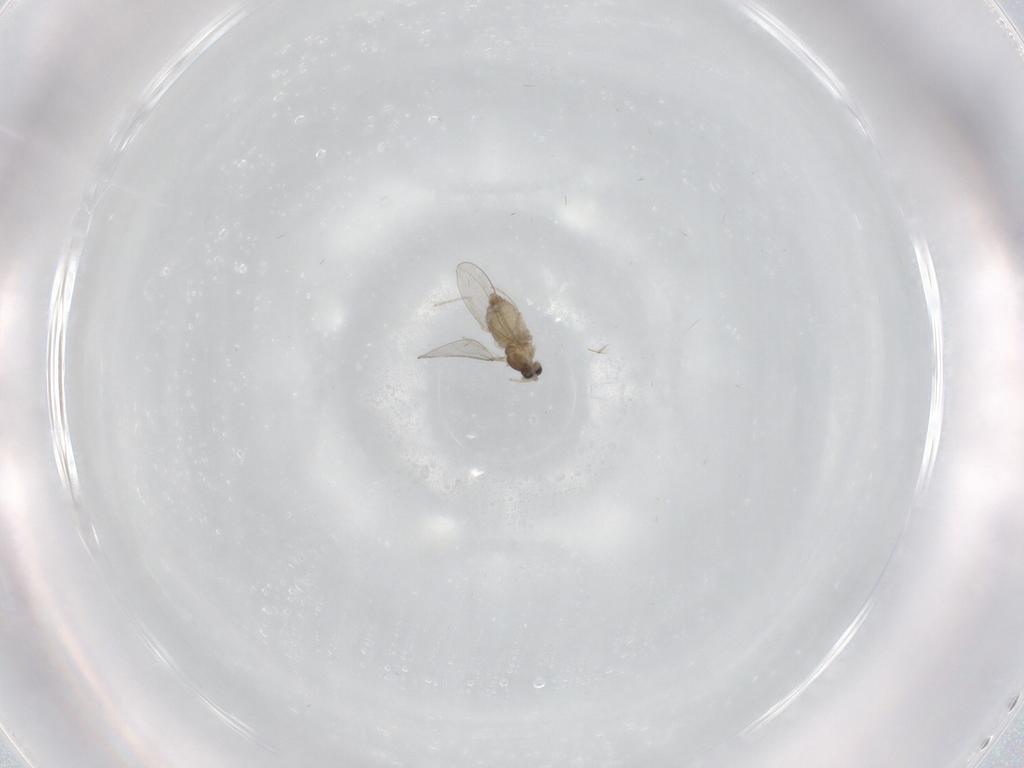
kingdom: Animalia
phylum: Arthropoda
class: Insecta
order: Diptera
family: Cecidomyiidae
